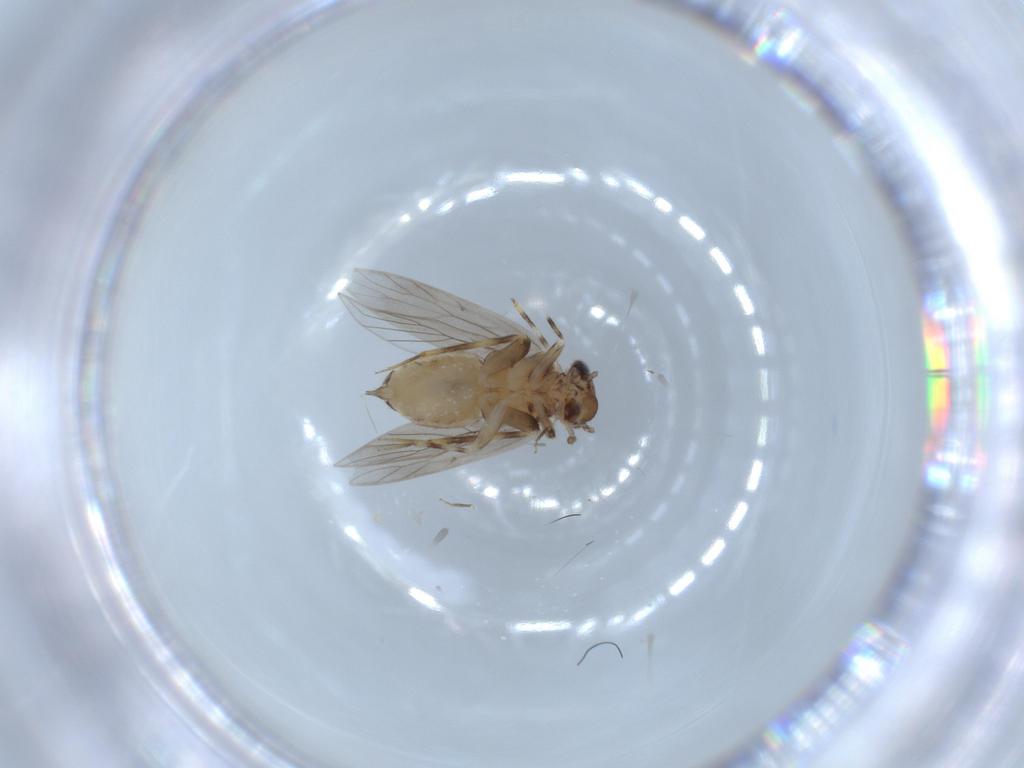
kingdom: Animalia
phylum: Arthropoda
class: Insecta
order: Psocodea
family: Lepidopsocidae
